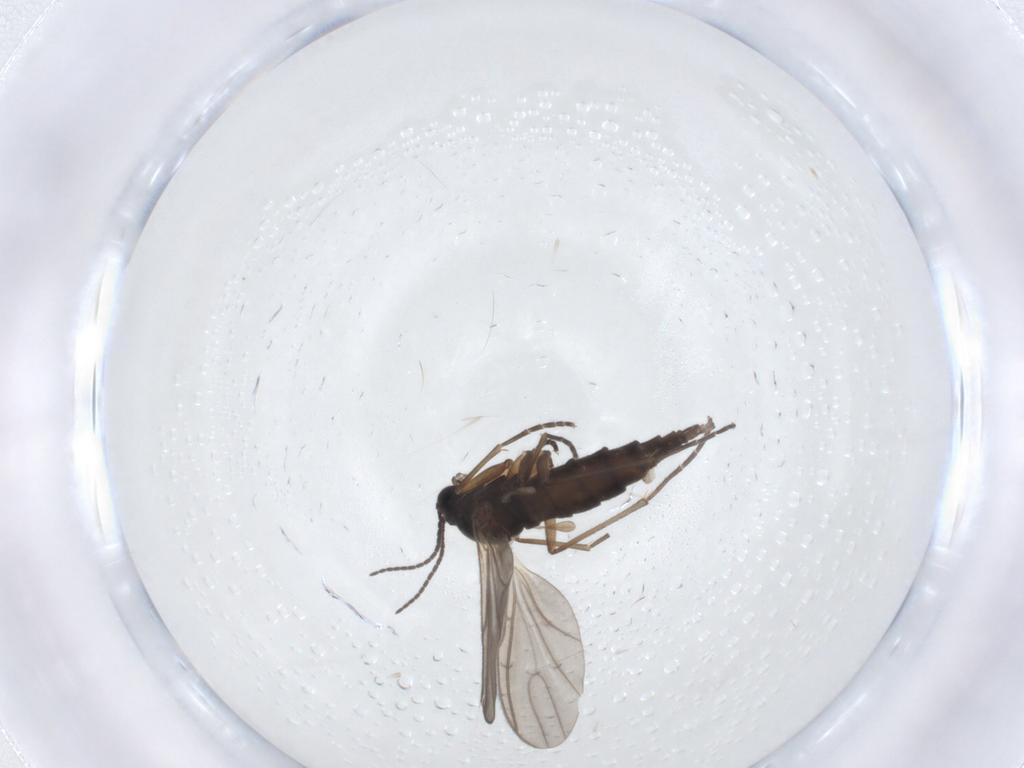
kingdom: Animalia
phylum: Arthropoda
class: Insecta
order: Diptera
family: Sciaridae
